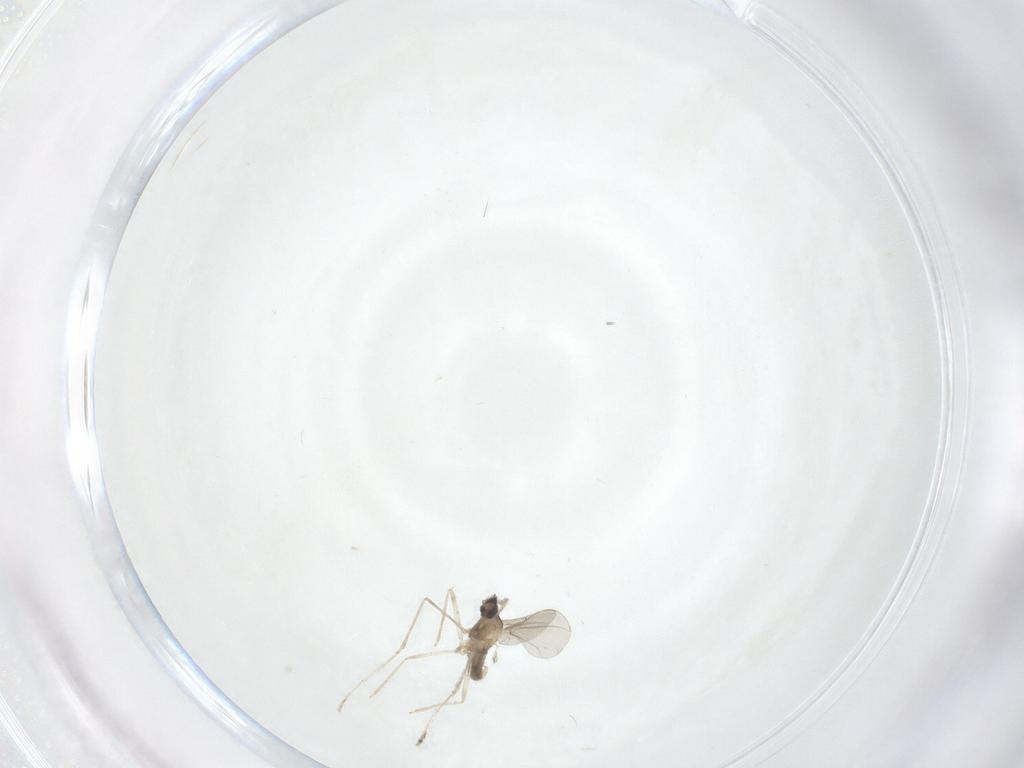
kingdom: Animalia
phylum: Arthropoda
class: Insecta
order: Diptera
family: Cecidomyiidae
